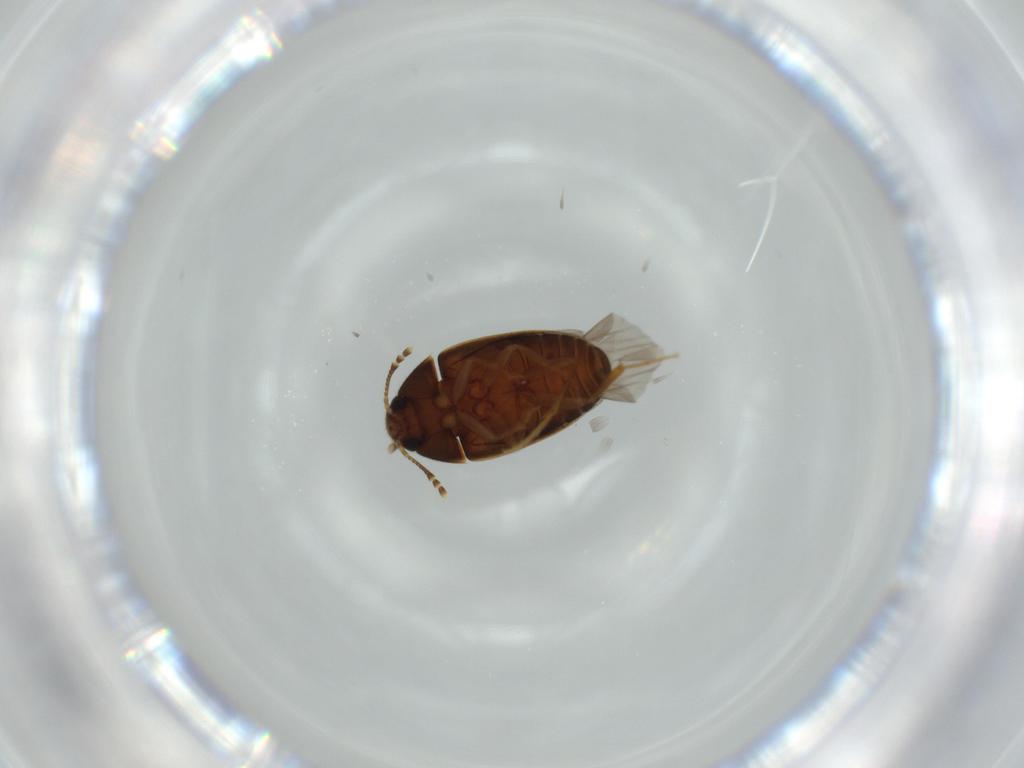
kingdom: Animalia
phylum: Arthropoda
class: Insecta
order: Coleoptera
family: Mycetophagidae
